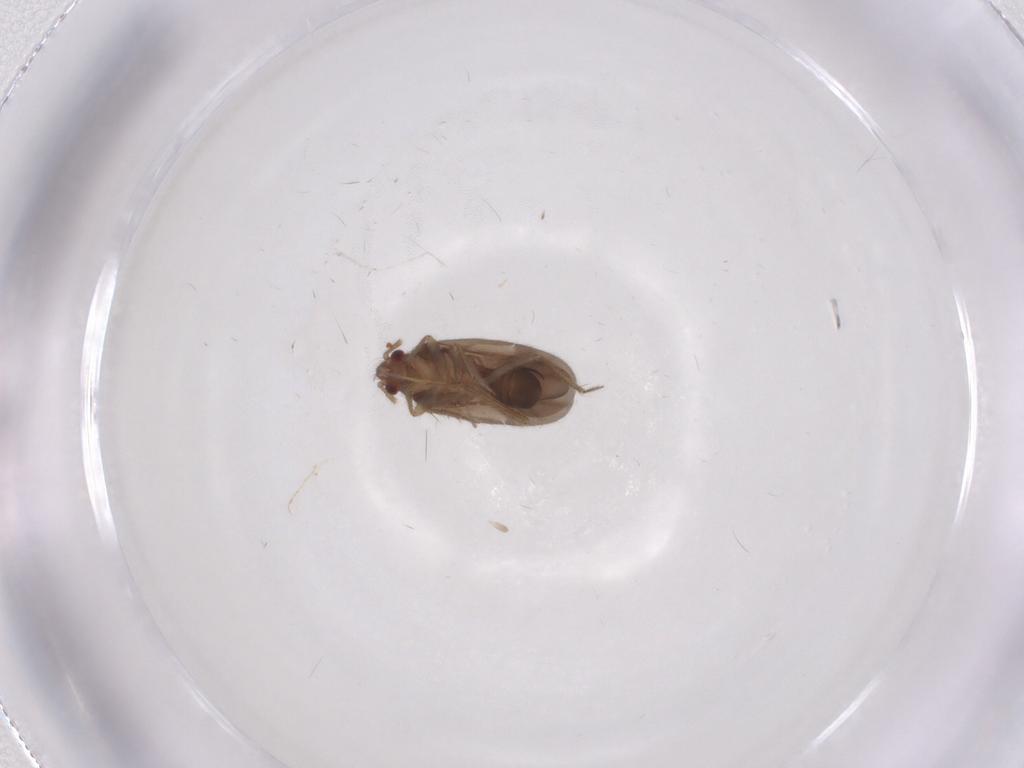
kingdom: Animalia
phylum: Arthropoda
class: Insecta
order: Hemiptera
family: Ceratocombidae
